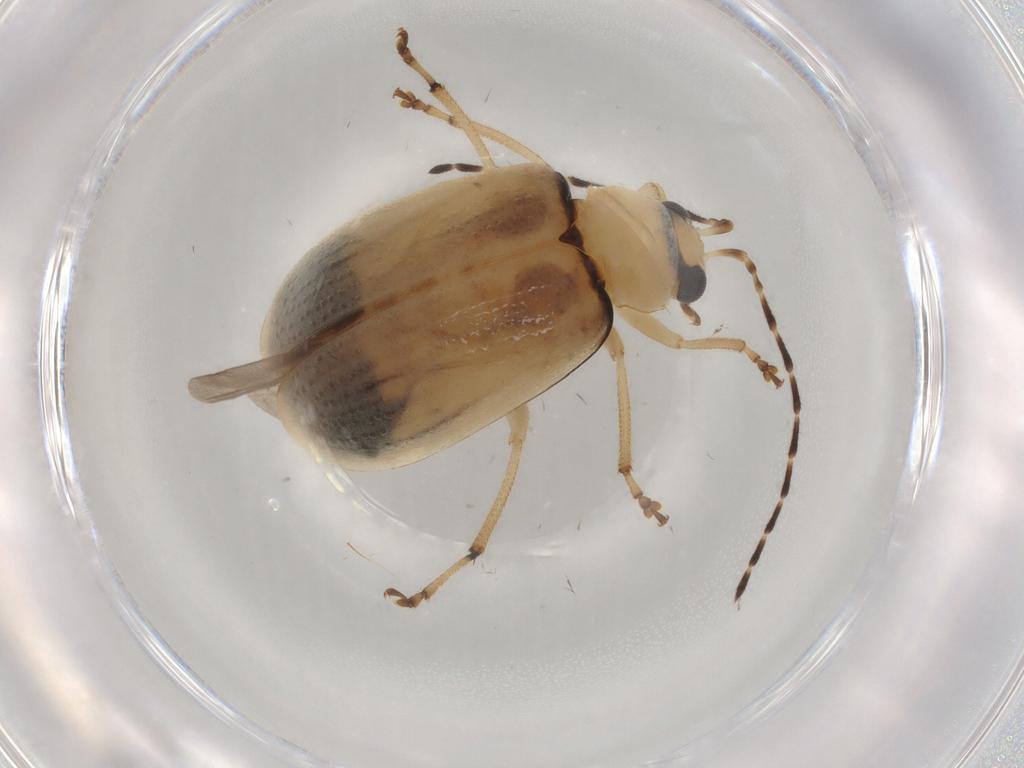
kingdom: Animalia
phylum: Arthropoda
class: Insecta
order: Coleoptera
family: Chrysomelidae
